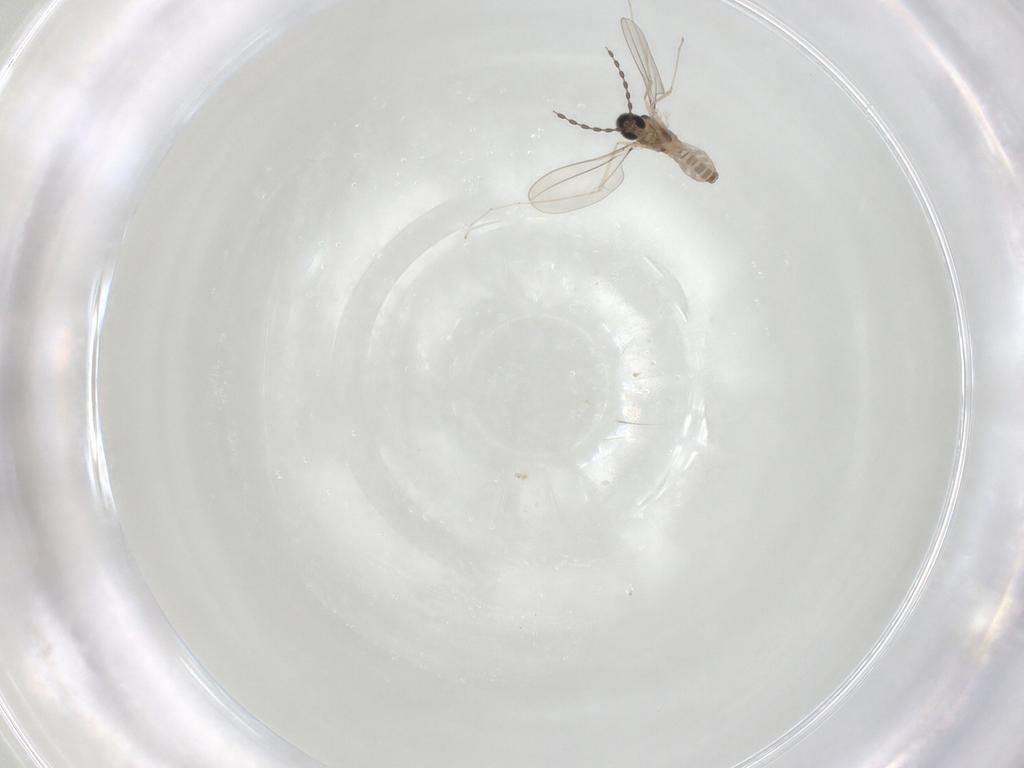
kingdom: Animalia
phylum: Arthropoda
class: Insecta
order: Diptera
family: Cecidomyiidae
